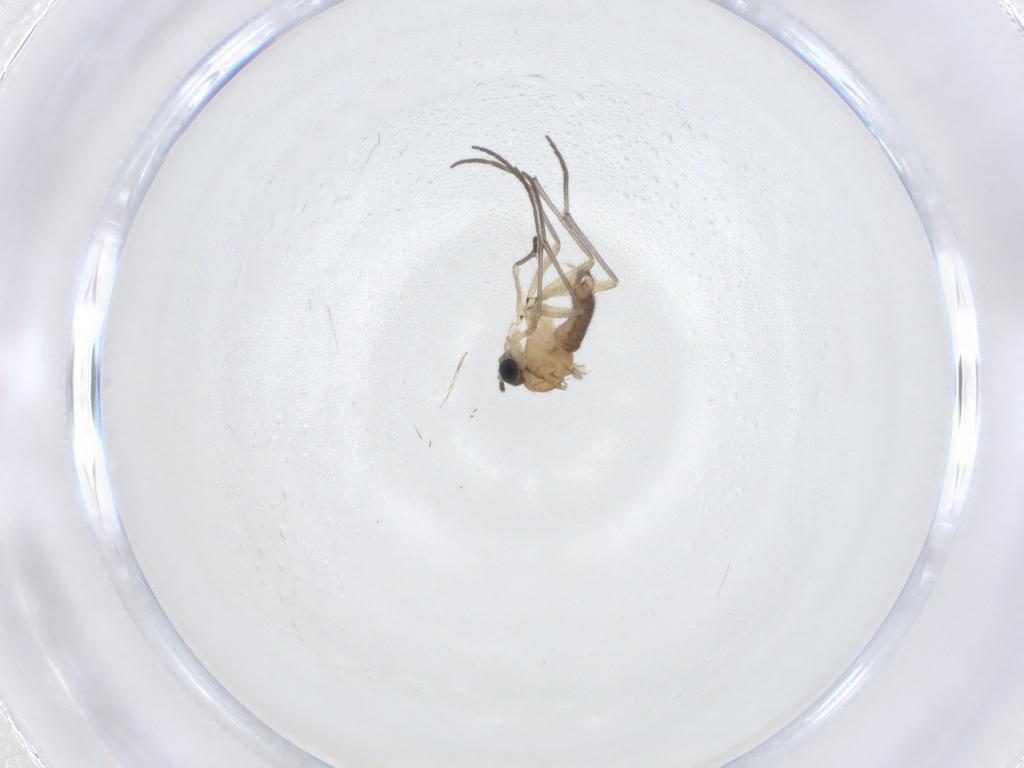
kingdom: Animalia
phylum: Arthropoda
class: Insecta
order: Diptera
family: Sciaridae
